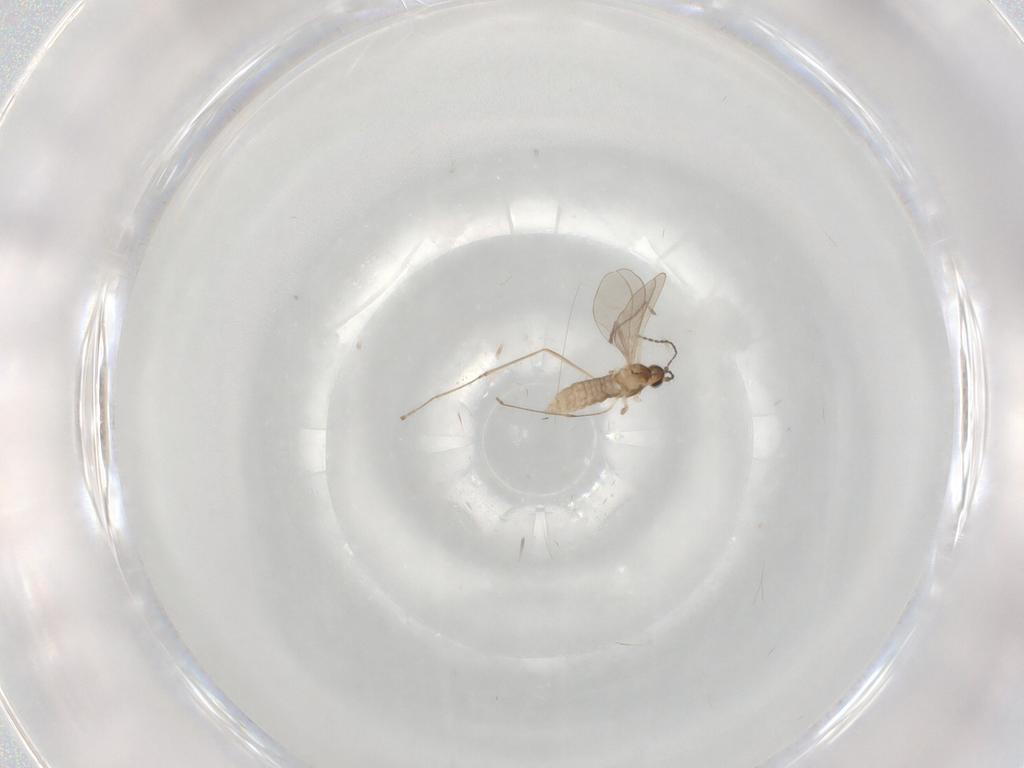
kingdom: Animalia
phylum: Arthropoda
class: Insecta
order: Diptera
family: Cecidomyiidae
